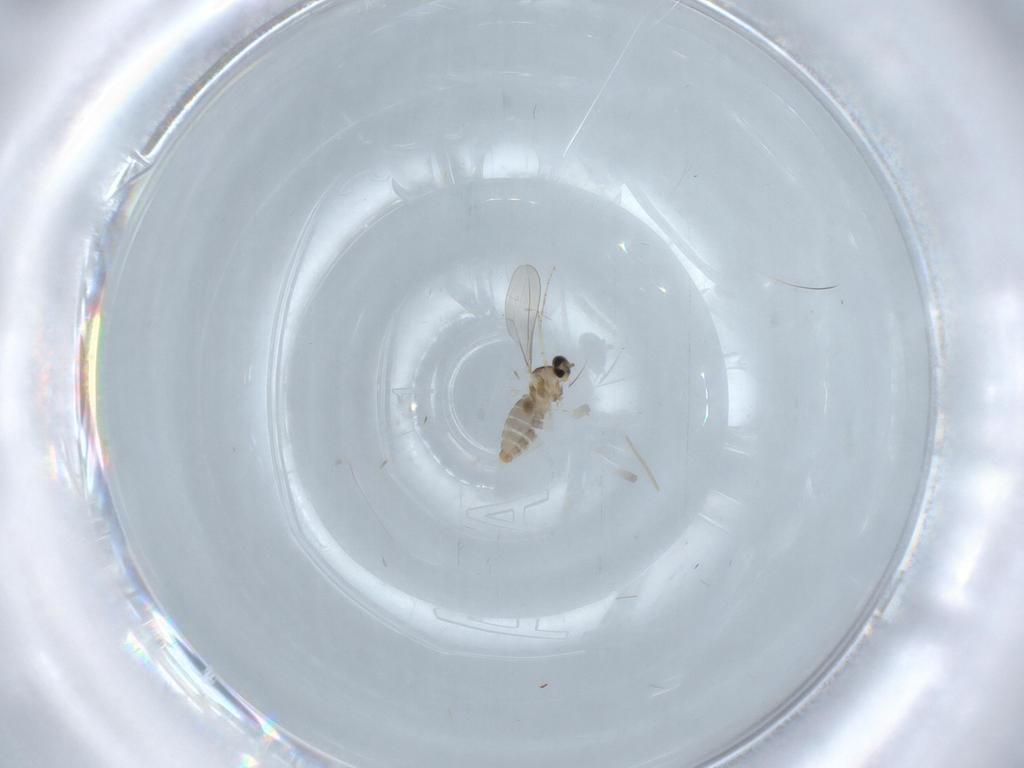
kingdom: Animalia
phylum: Arthropoda
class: Insecta
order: Diptera
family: Cecidomyiidae
